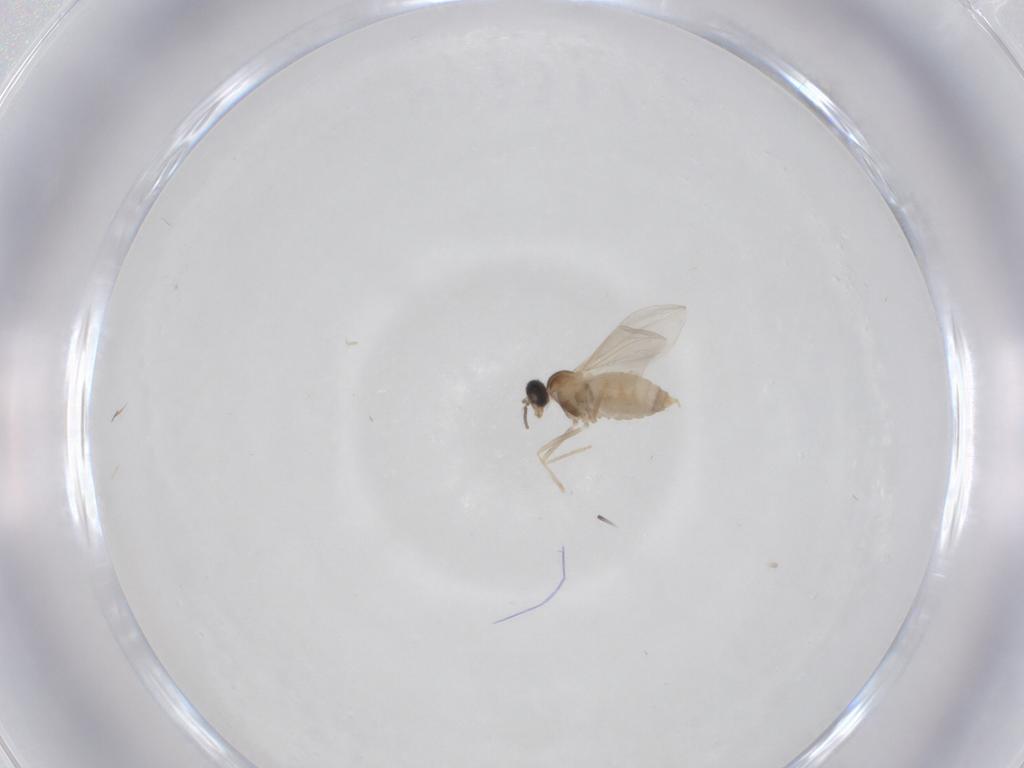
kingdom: Animalia
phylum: Arthropoda
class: Insecta
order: Diptera
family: Cecidomyiidae
